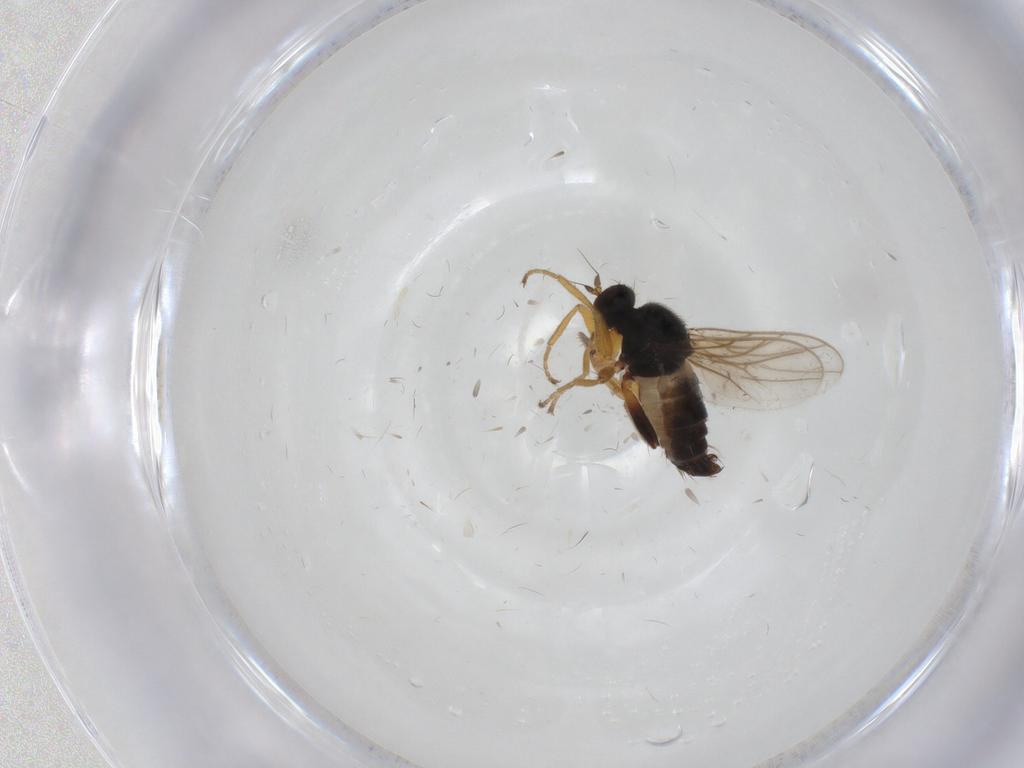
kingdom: Animalia
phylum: Arthropoda
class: Insecta
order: Diptera
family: Hybotidae
